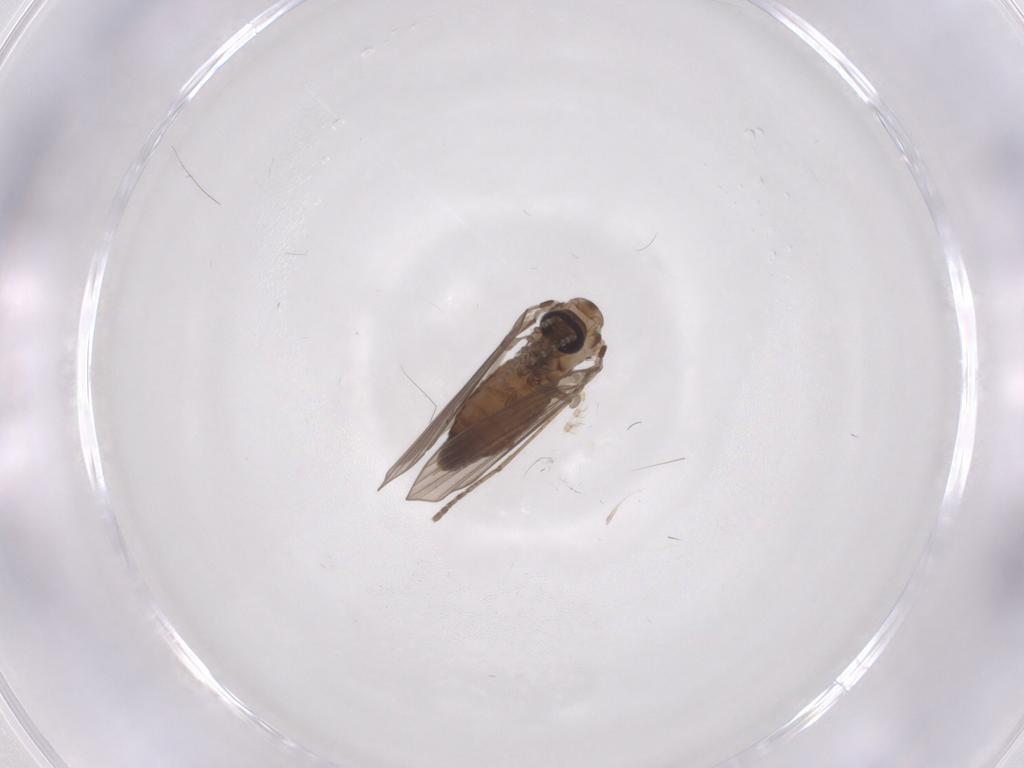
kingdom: Animalia
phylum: Arthropoda
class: Insecta
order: Diptera
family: Psychodidae
